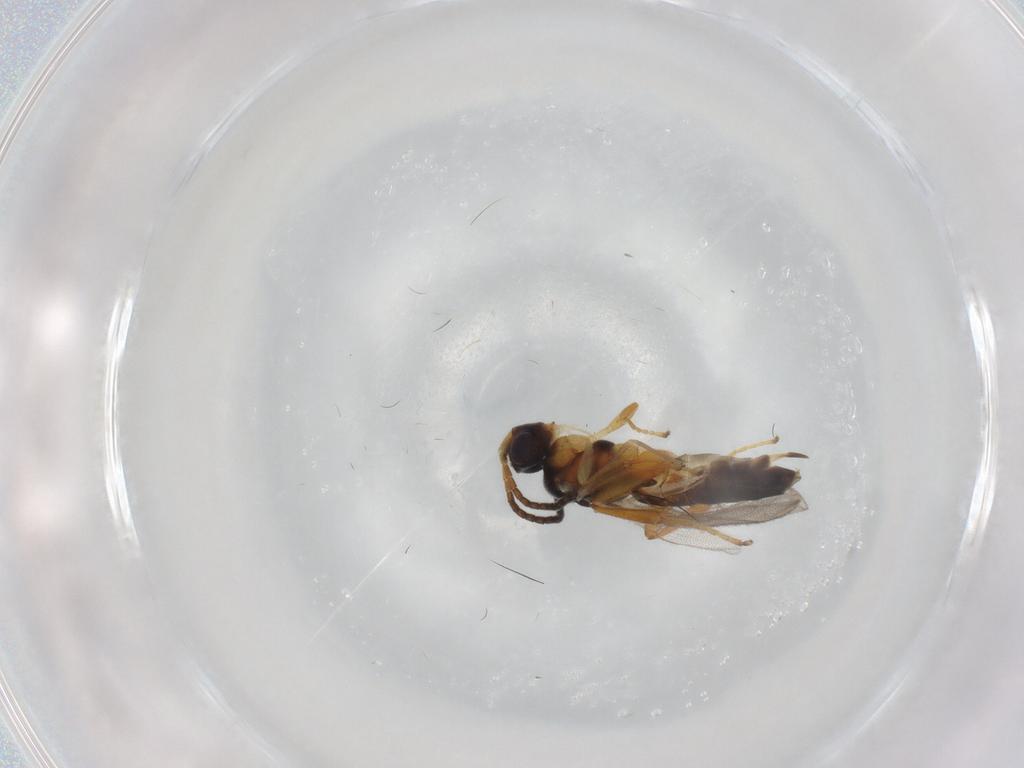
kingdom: Animalia
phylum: Arthropoda
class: Insecta
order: Hymenoptera
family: Ichneumonidae
